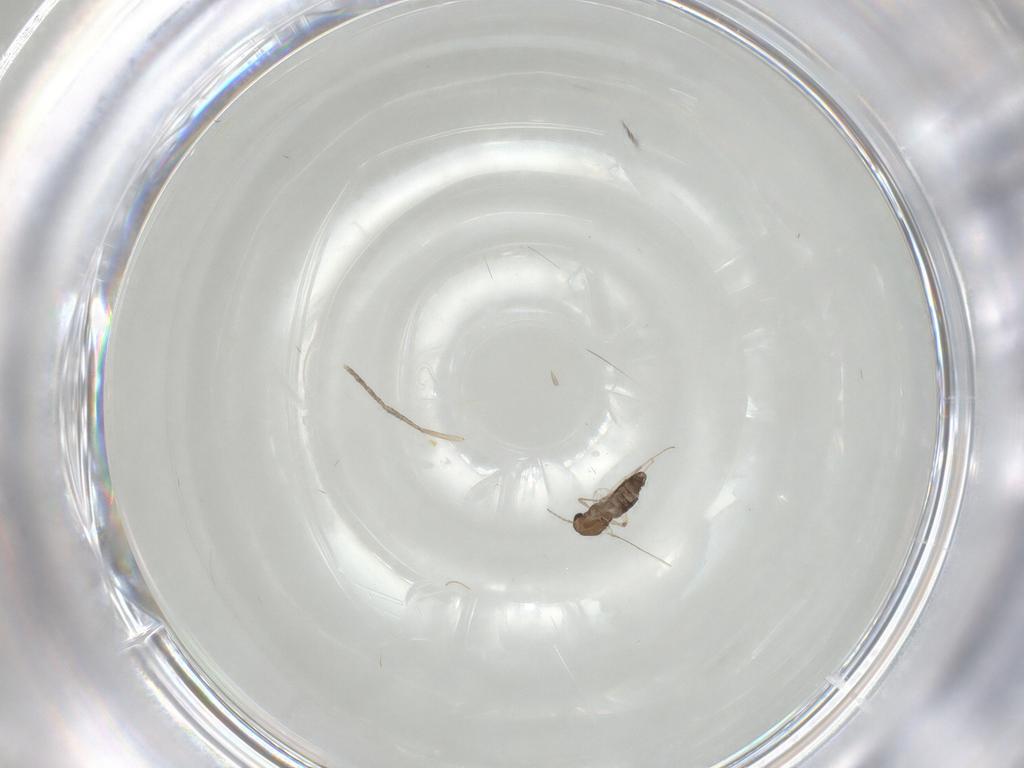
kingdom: Animalia
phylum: Arthropoda
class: Insecta
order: Diptera
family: Phoridae
